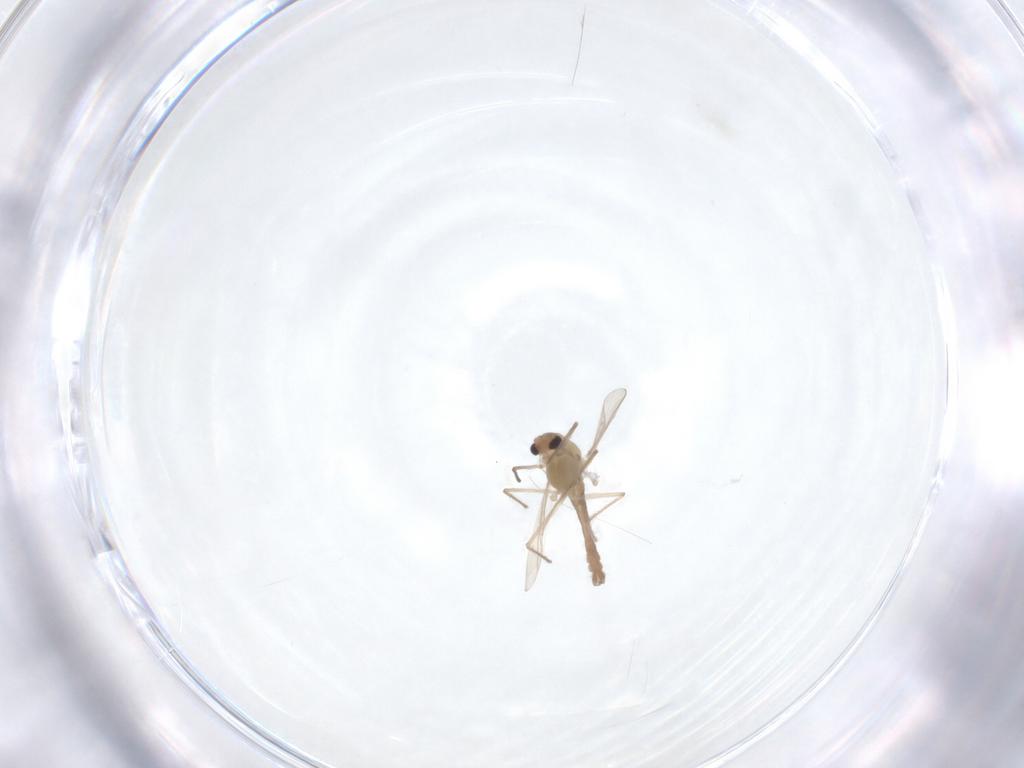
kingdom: Animalia
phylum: Arthropoda
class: Insecta
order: Diptera
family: Chironomidae
